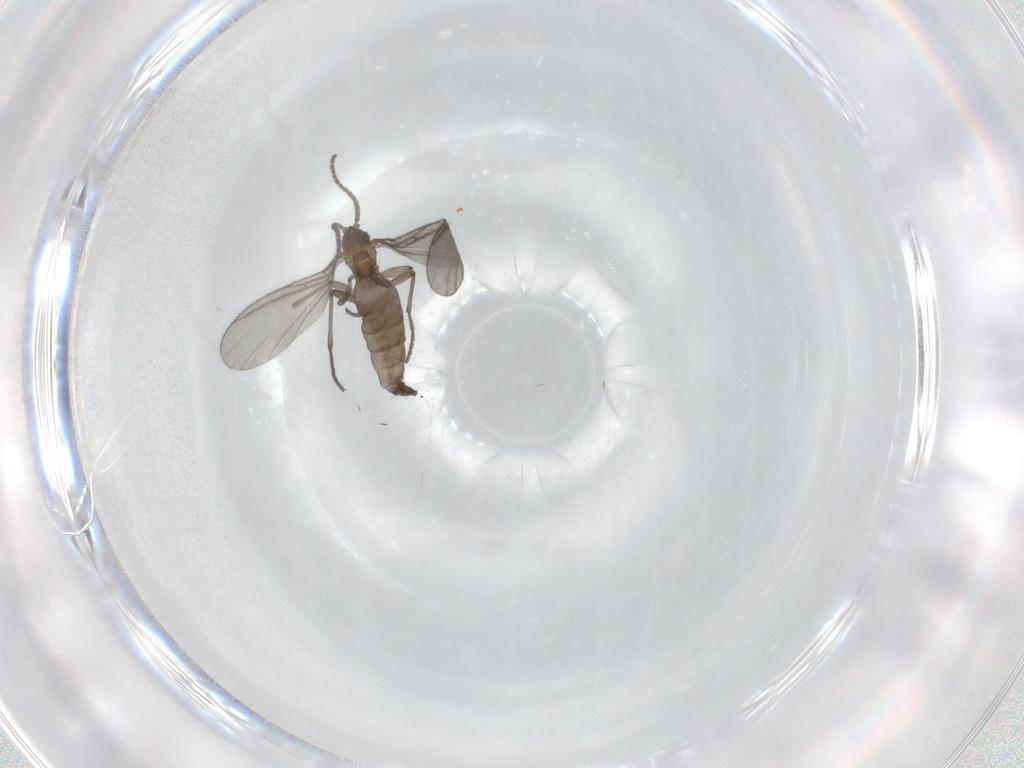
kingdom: Animalia
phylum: Arthropoda
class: Insecta
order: Diptera
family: Sciaridae
